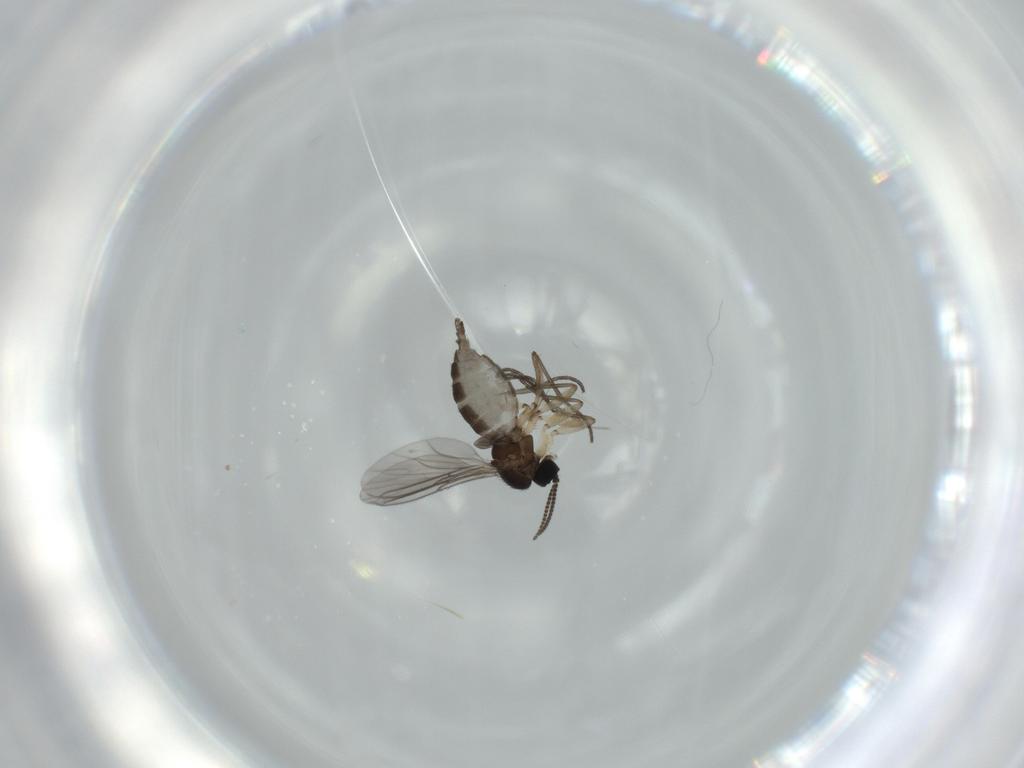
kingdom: Animalia
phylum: Arthropoda
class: Insecta
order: Diptera
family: Sciaridae
